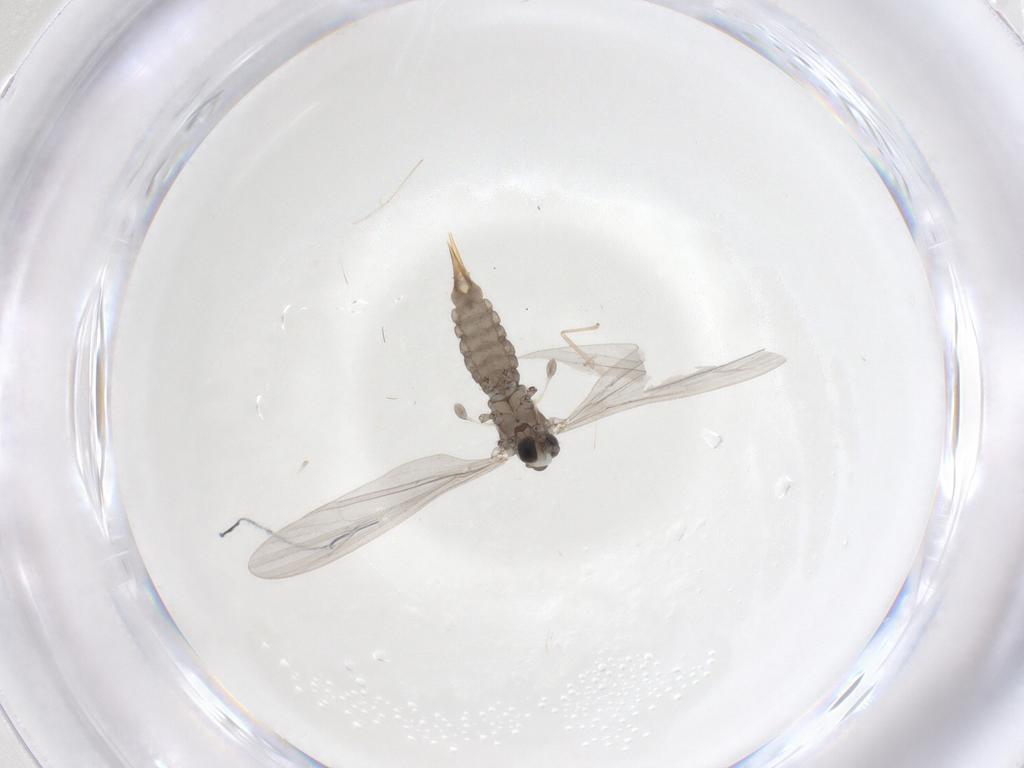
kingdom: Animalia
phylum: Arthropoda
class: Insecta
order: Diptera
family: Limoniidae
